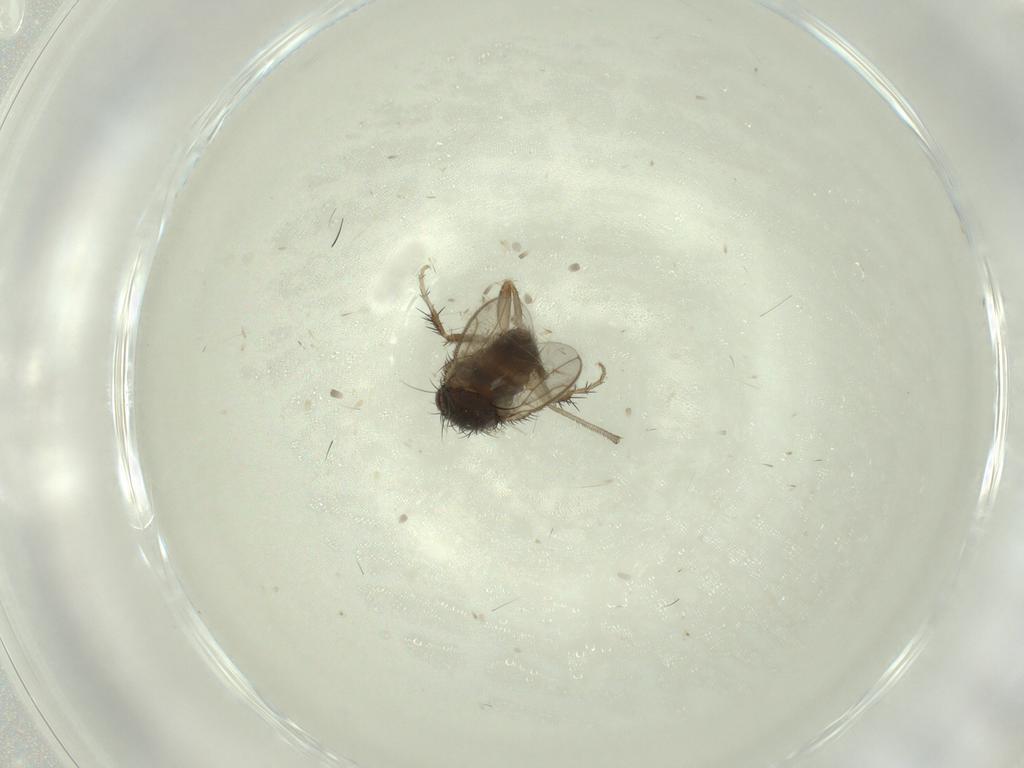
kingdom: Animalia
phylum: Arthropoda
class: Insecta
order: Diptera
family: Sphaeroceridae
